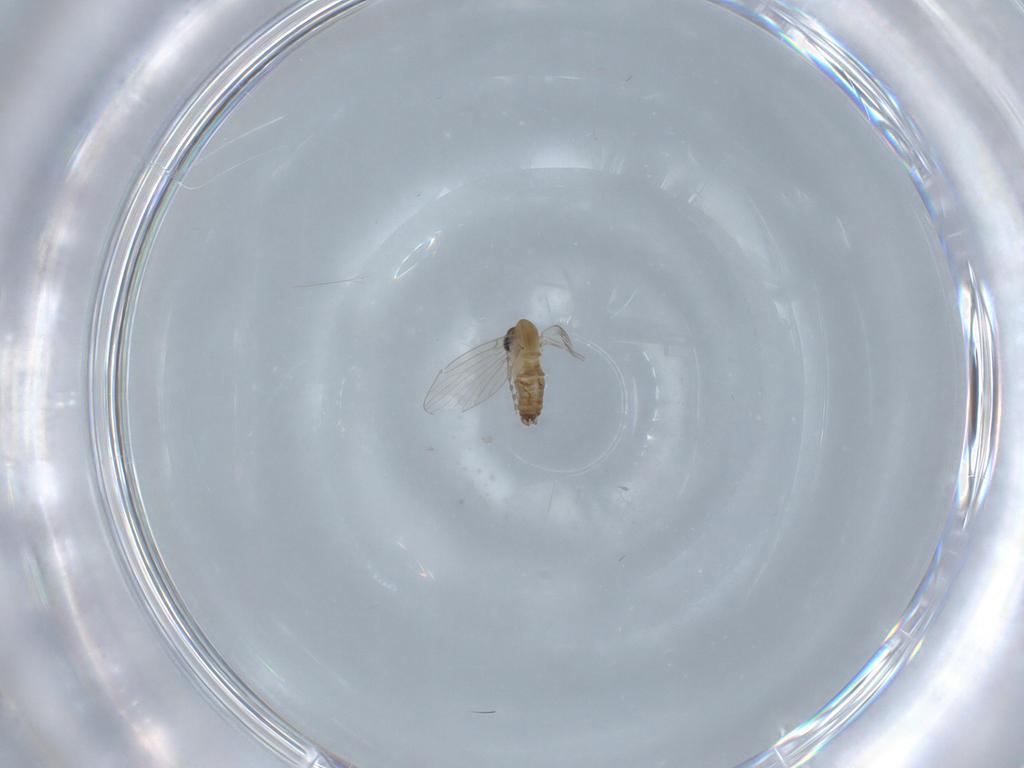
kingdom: Animalia
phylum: Arthropoda
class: Insecta
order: Diptera
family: Psychodidae
